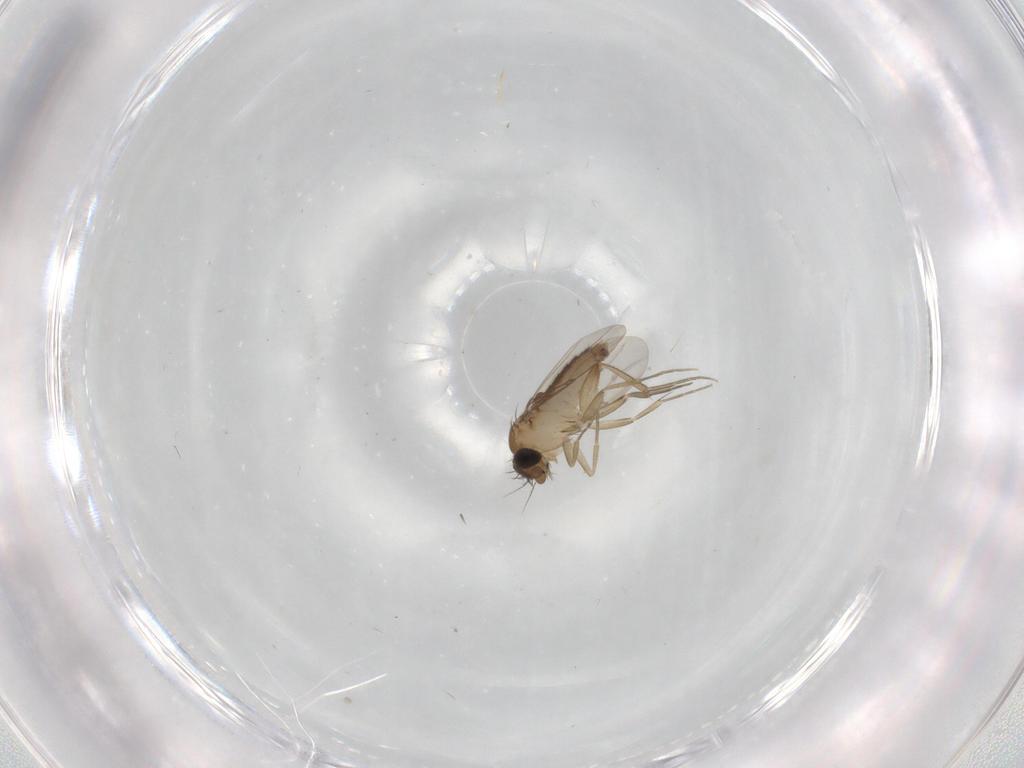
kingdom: Animalia
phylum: Arthropoda
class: Insecta
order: Diptera
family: Phoridae
